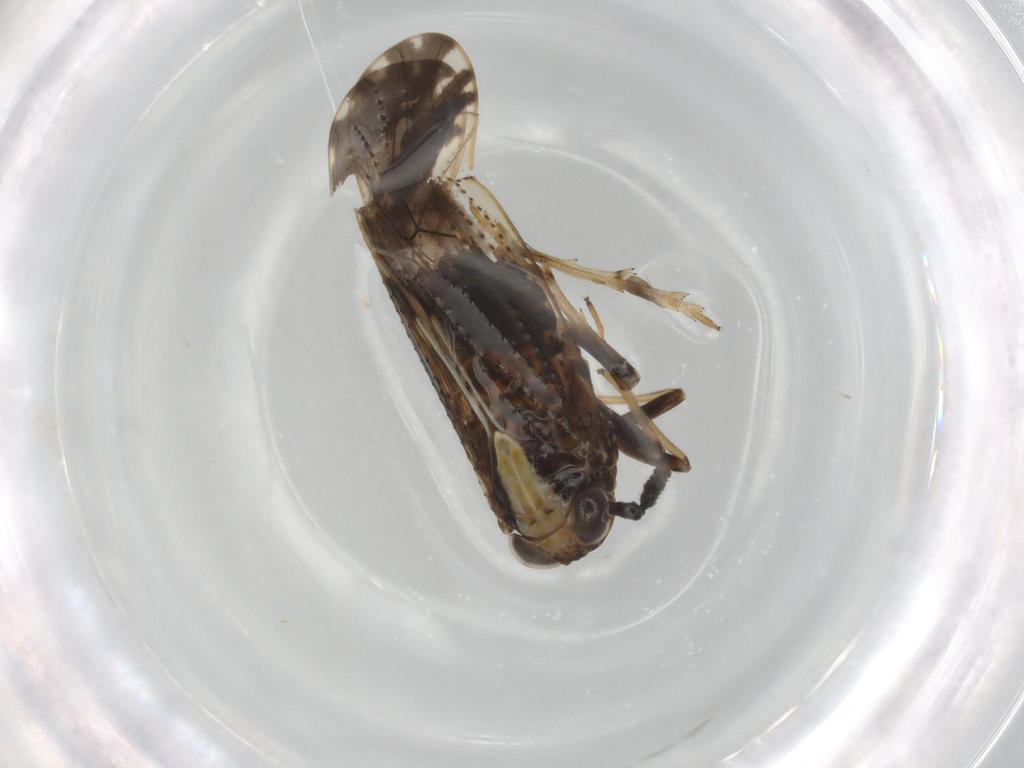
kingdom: Animalia
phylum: Arthropoda
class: Insecta
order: Hemiptera
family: Delphacidae
